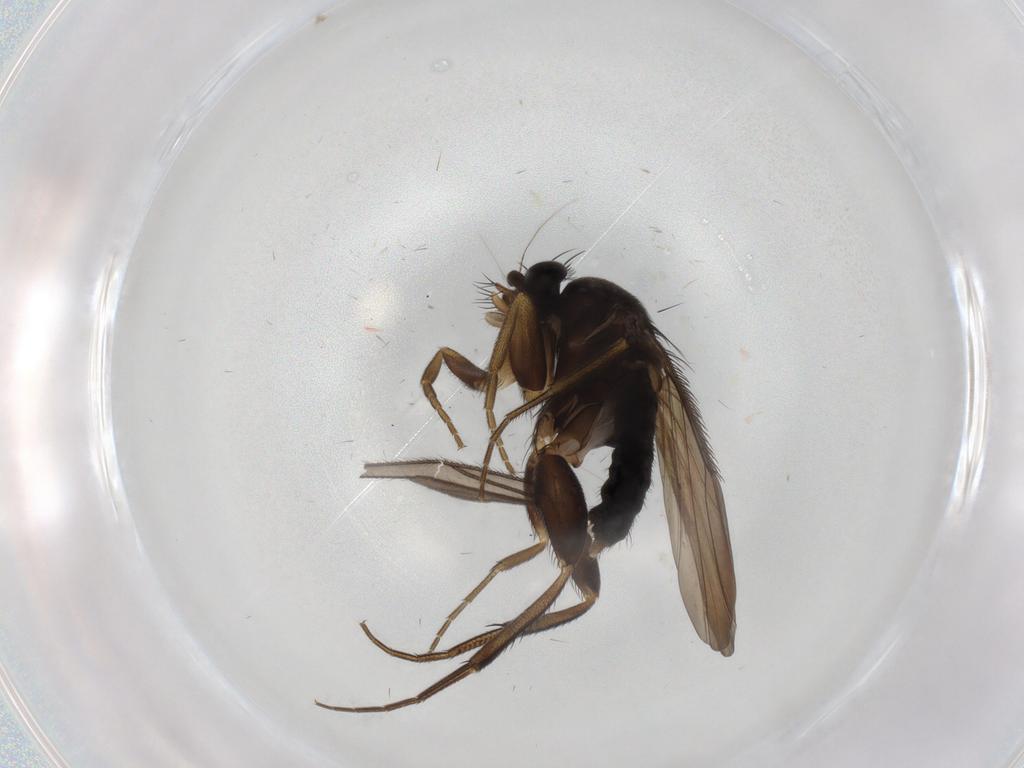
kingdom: Animalia
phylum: Arthropoda
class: Insecta
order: Diptera
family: Phoridae
